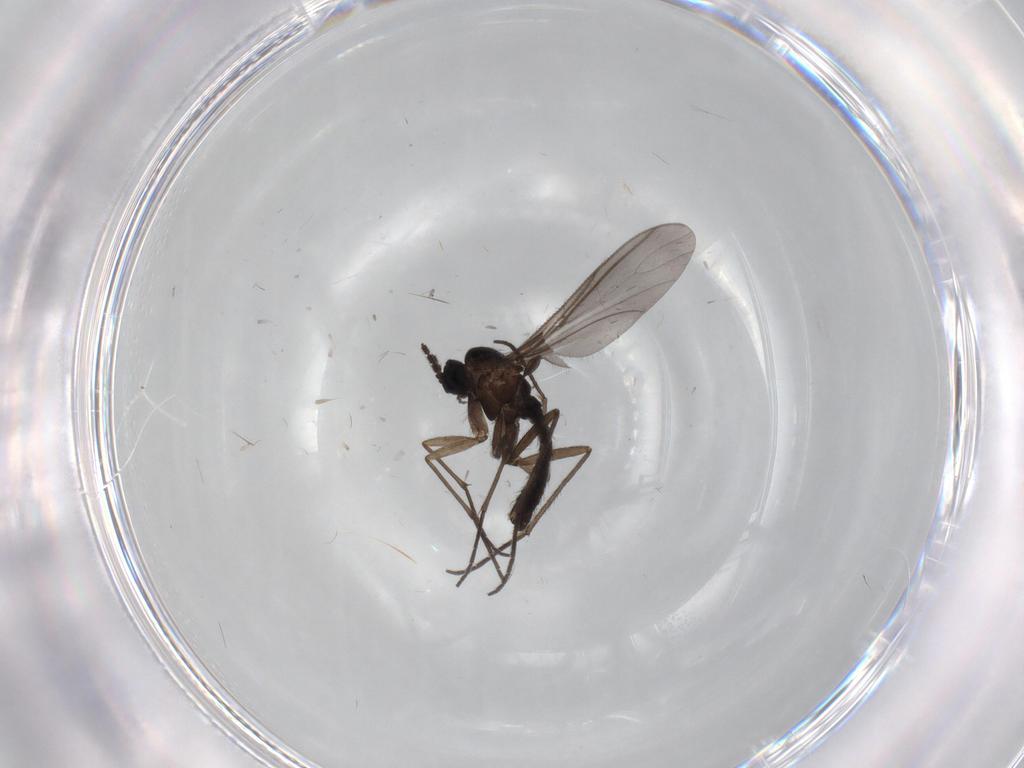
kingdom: Animalia
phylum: Arthropoda
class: Insecta
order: Diptera
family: Sciaridae
